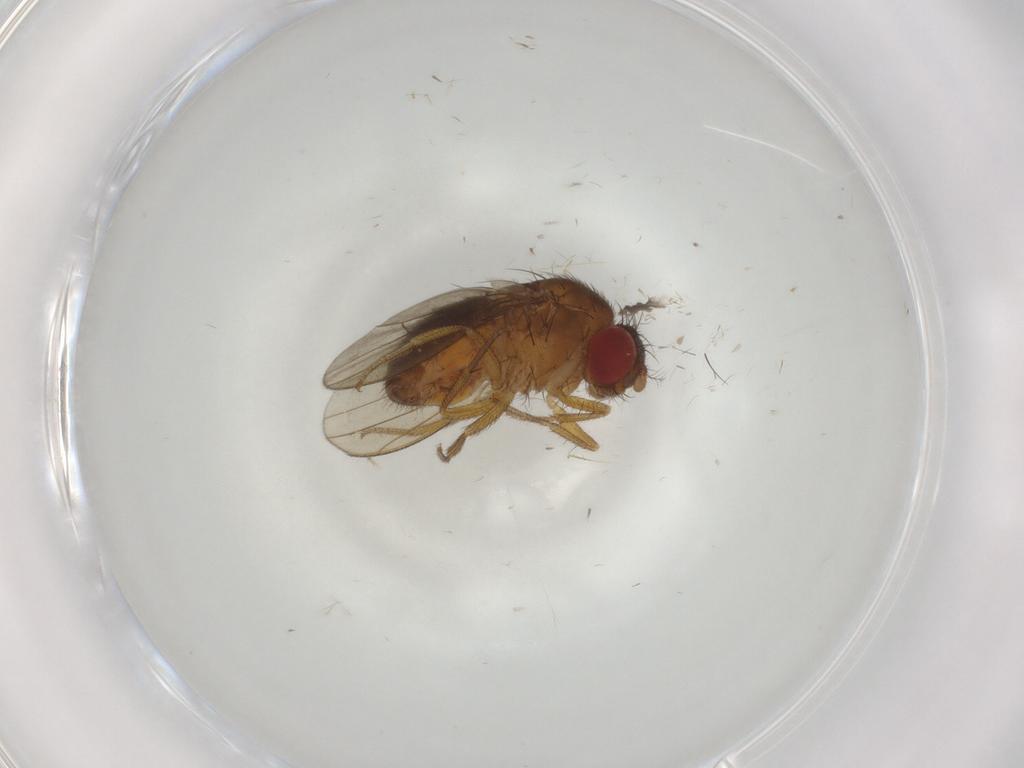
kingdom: Animalia
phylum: Arthropoda
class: Insecta
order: Diptera
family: Drosophilidae
